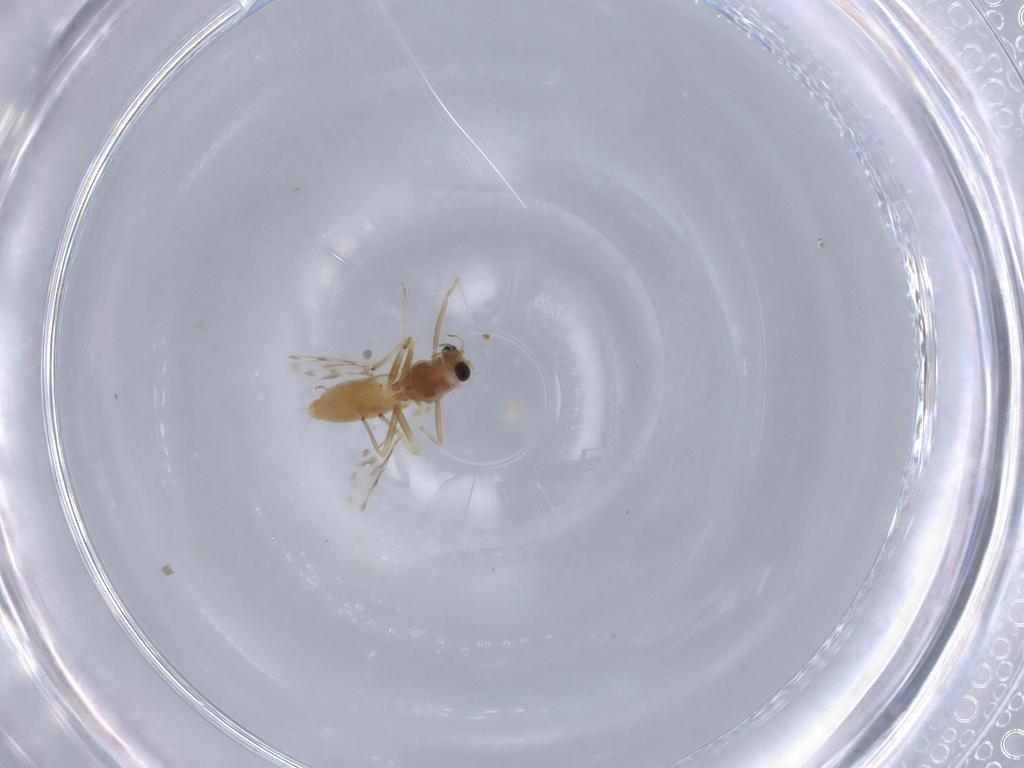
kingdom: Animalia
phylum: Arthropoda
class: Insecta
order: Diptera
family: Chironomidae
